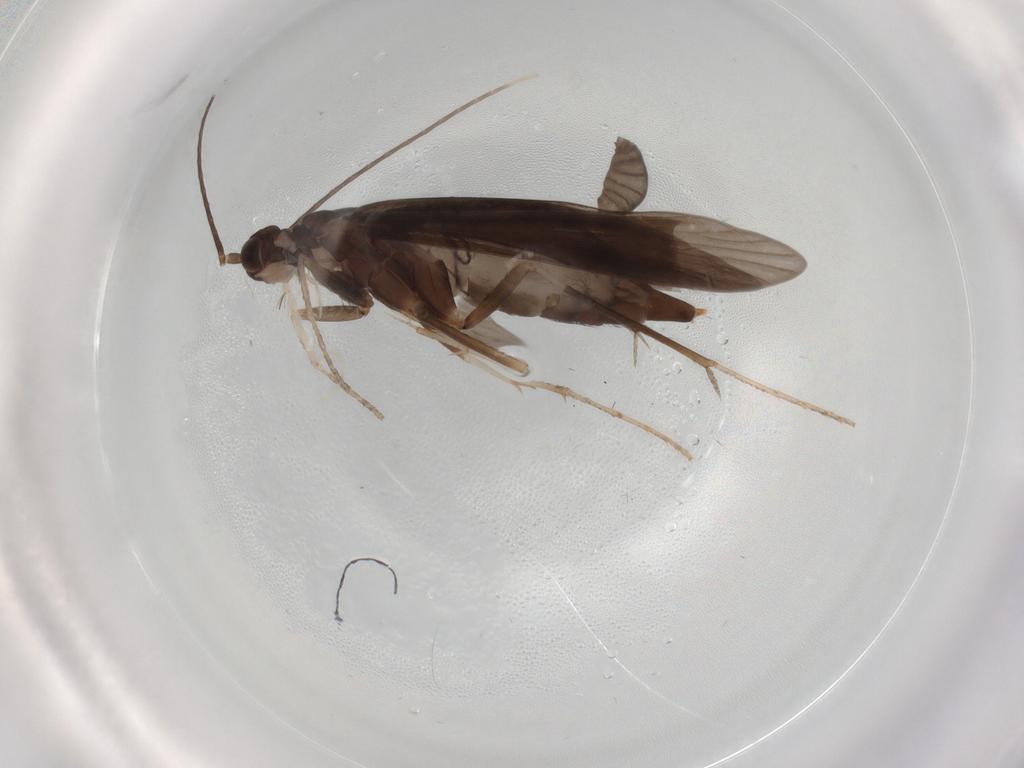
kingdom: Animalia
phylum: Arthropoda
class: Insecta
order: Trichoptera
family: Xiphocentronidae
